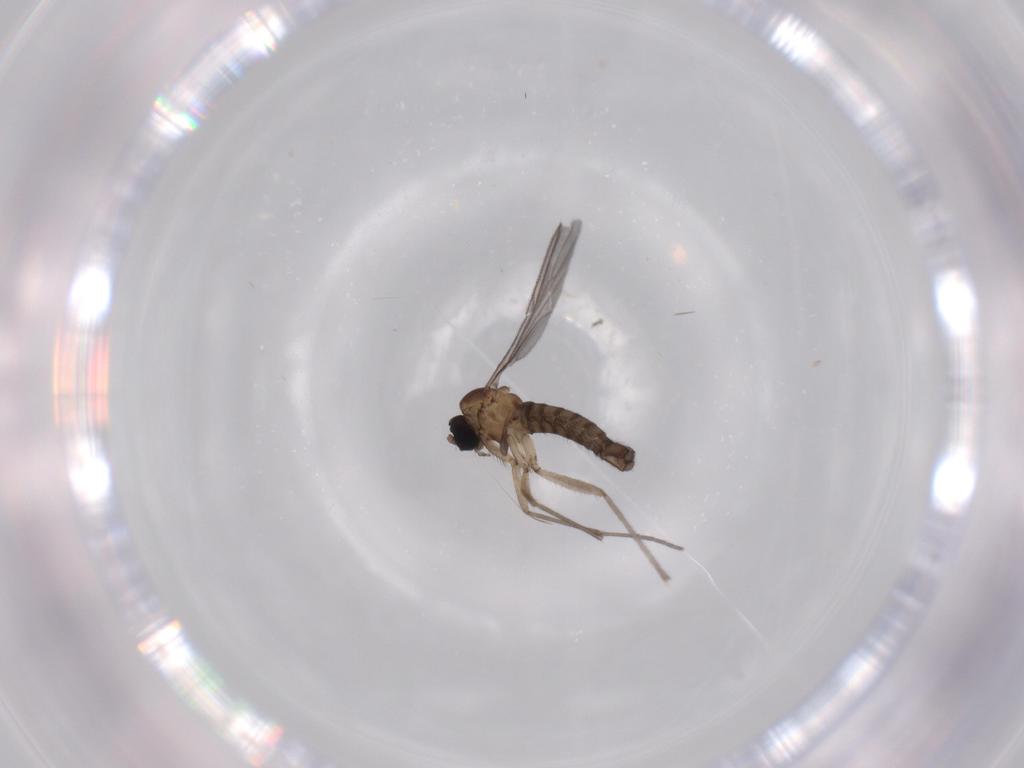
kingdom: Animalia
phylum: Arthropoda
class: Insecta
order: Diptera
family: Sciaridae
